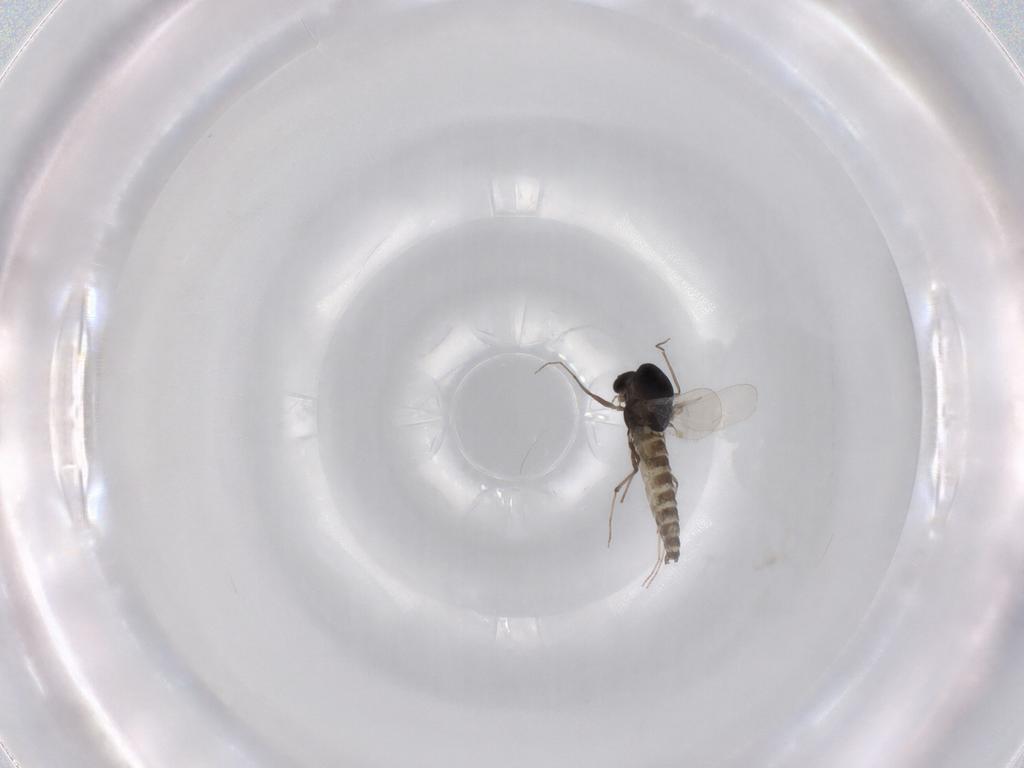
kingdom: Animalia
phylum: Arthropoda
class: Insecta
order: Diptera
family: Chironomidae
